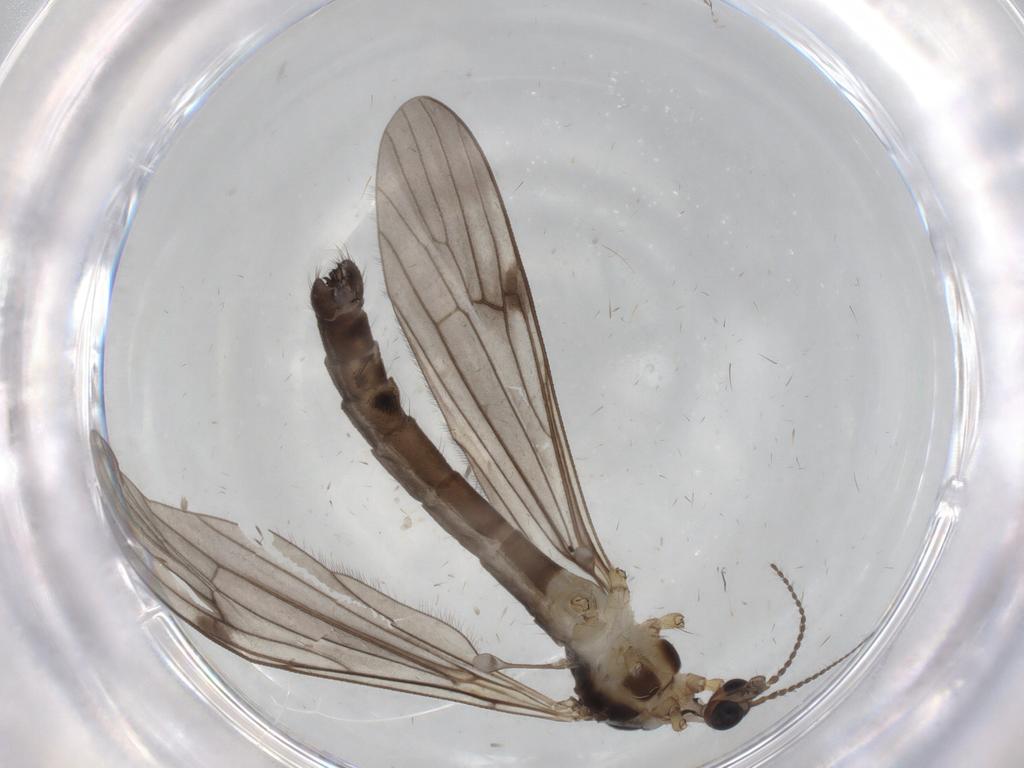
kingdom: Animalia
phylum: Arthropoda
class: Insecta
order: Diptera
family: Limoniidae
